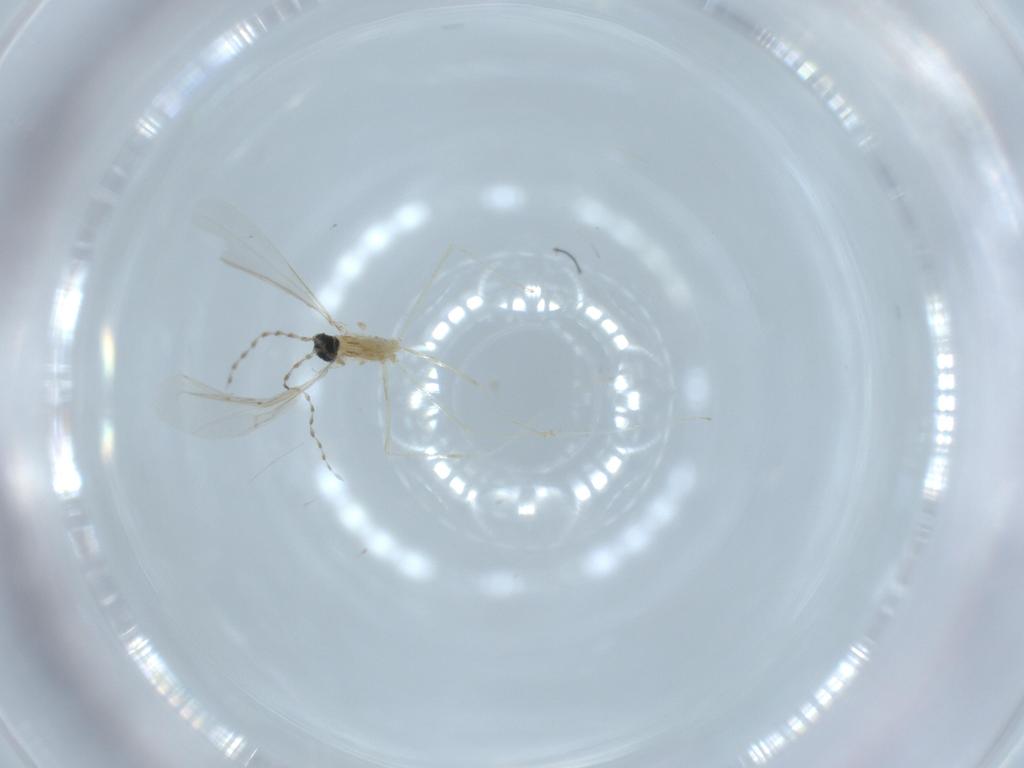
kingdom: Animalia
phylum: Arthropoda
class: Insecta
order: Diptera
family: Cecidomyiidae
